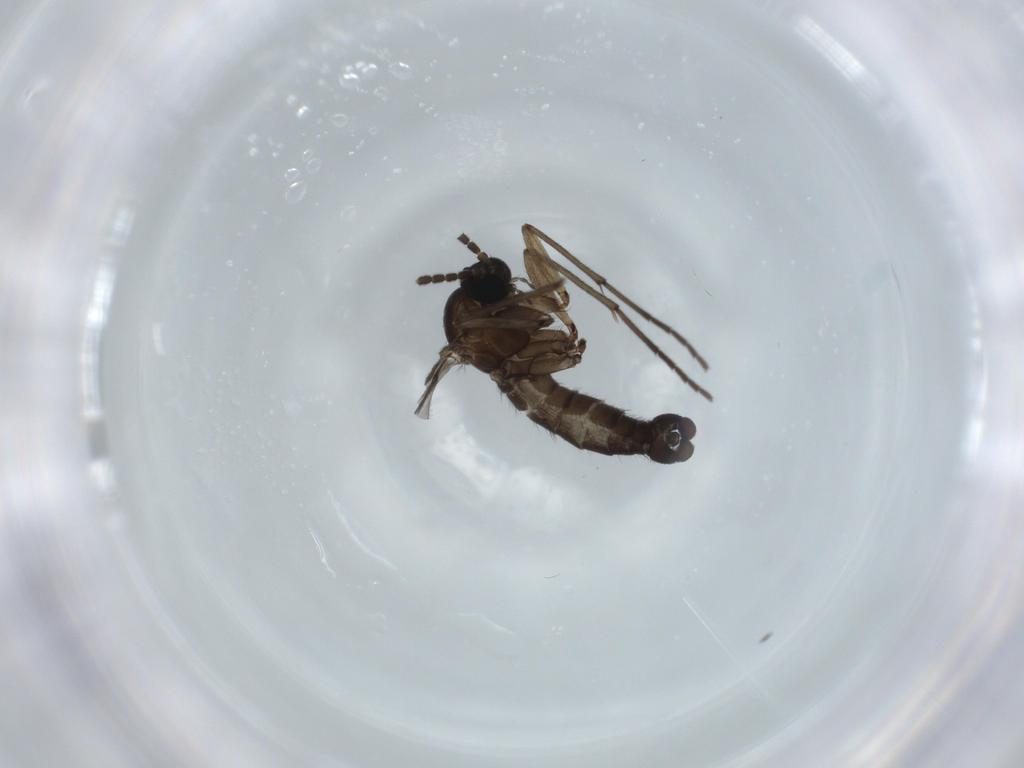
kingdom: Animalia
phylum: Arthropoda
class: Insecta
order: Diptera
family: Sciaridae
